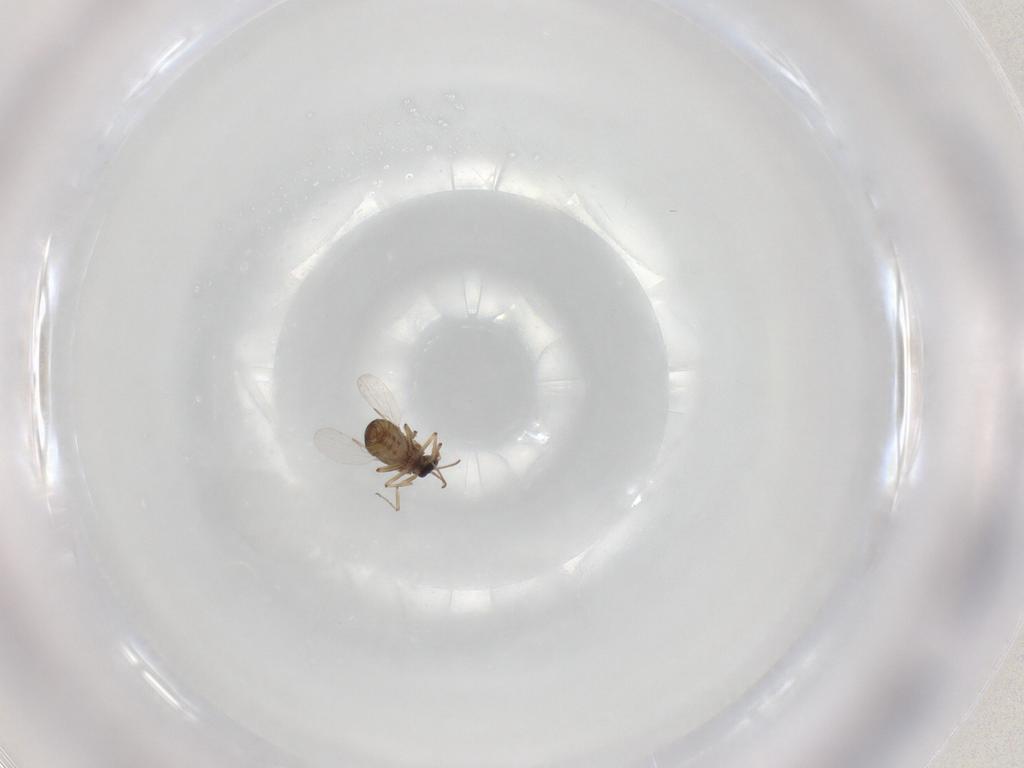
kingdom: Animalia
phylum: Arthropoda
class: Insecta
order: Diptera
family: Ceratopogonidae
